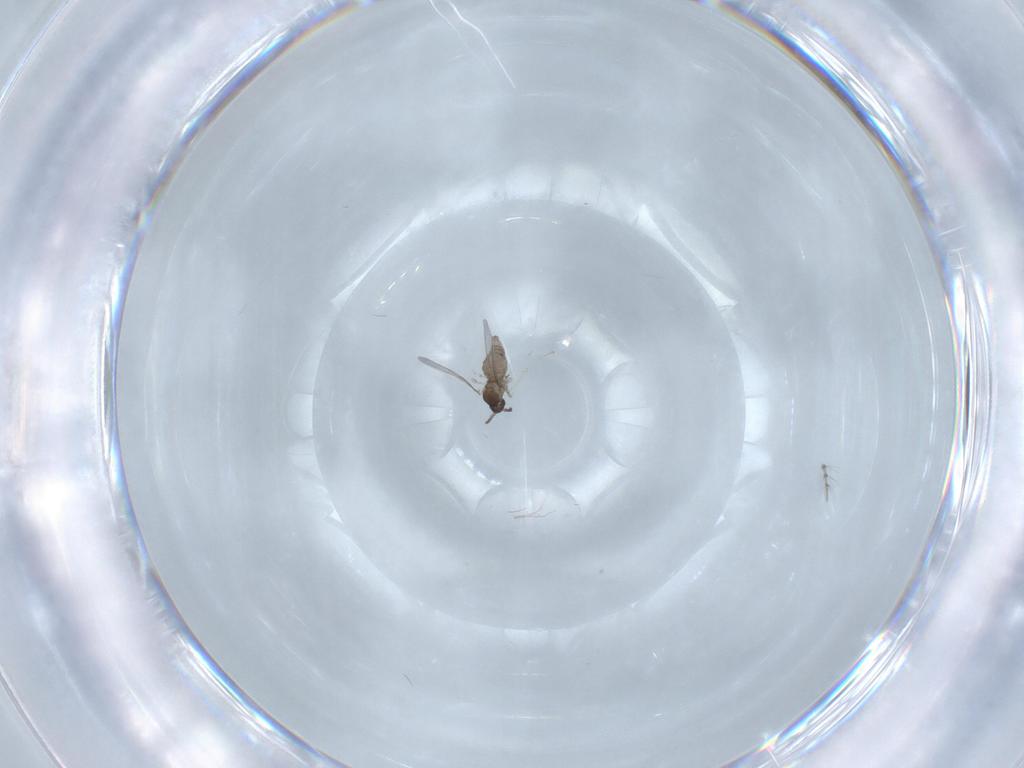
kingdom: Animalia
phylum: Arthropoda
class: Insecta
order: Diptera
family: Cecidomyiidae
